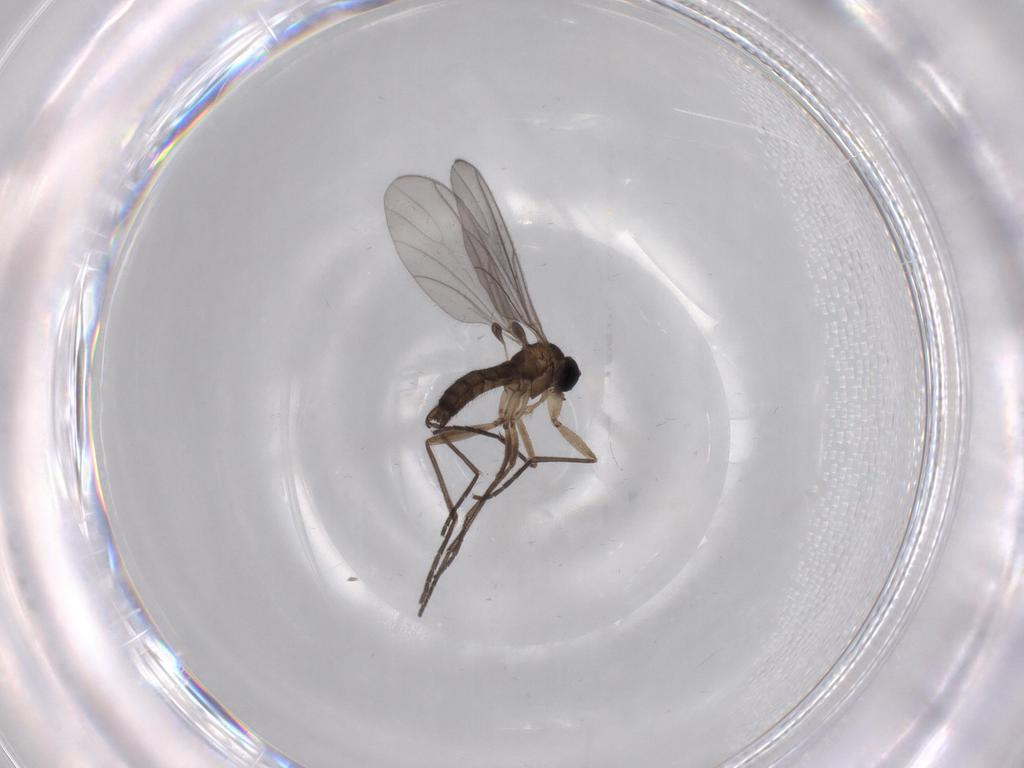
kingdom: Animalia
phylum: Arthropoda
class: Insecta
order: Diptera
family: Sciaridae
